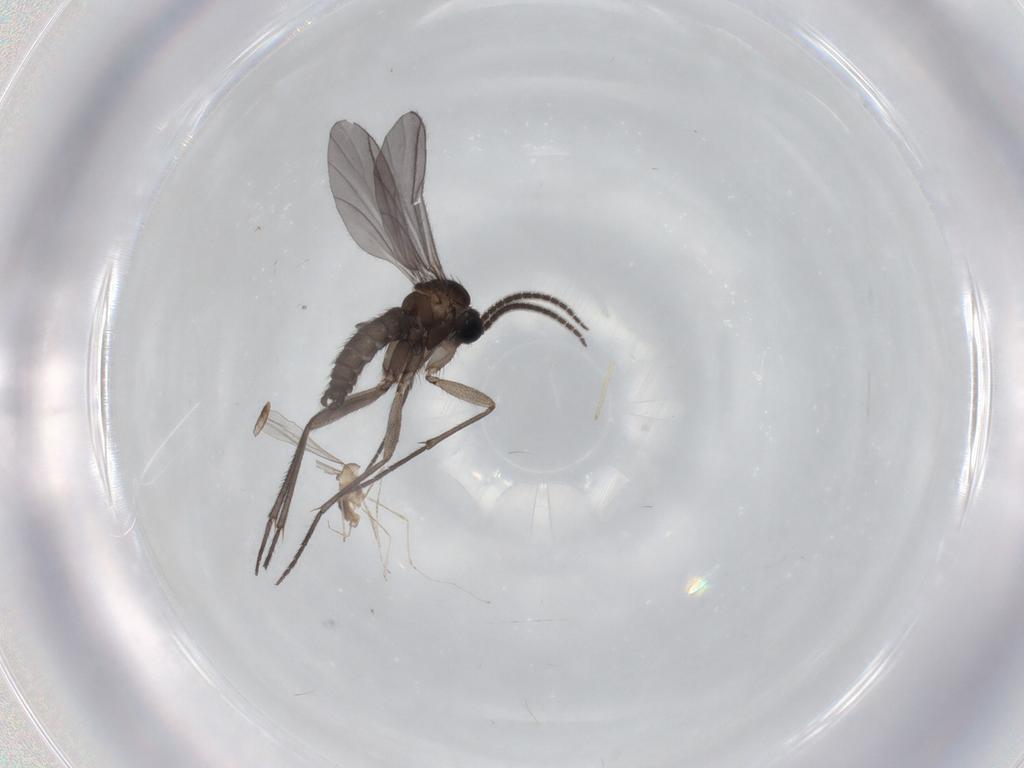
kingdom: Animalia
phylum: Arthropoda
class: Insecta
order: Diptera
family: Sciaridae
